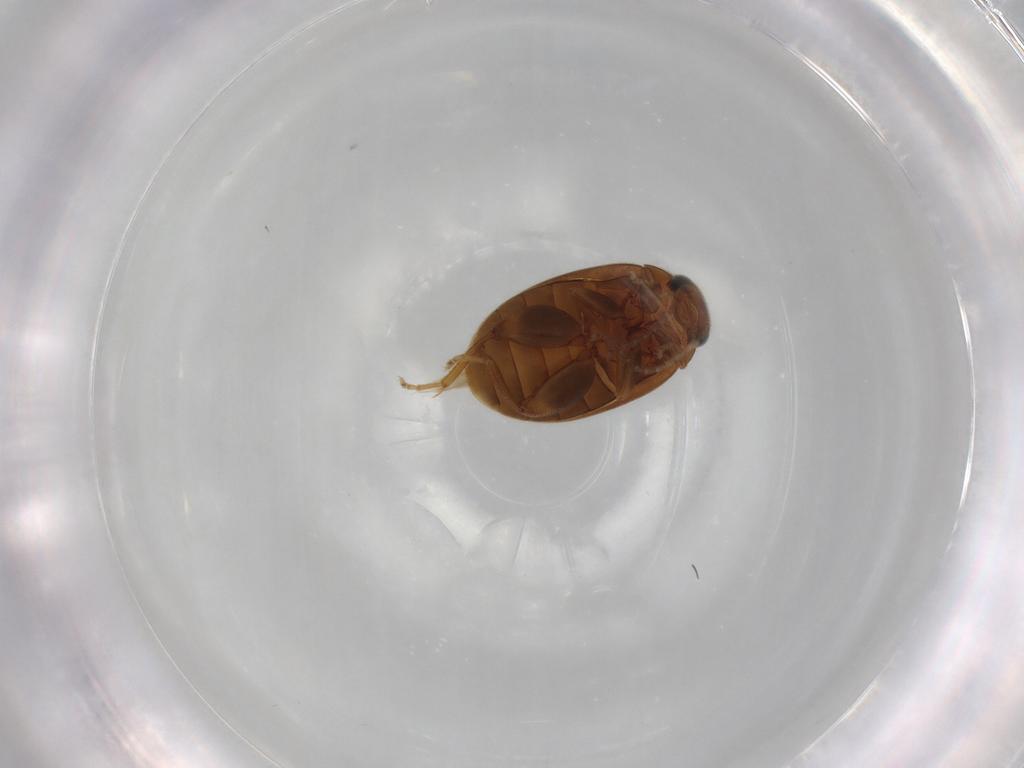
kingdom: Animalia
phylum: Arthropoda
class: Insecta
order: Coleoptera
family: Scirtidae
